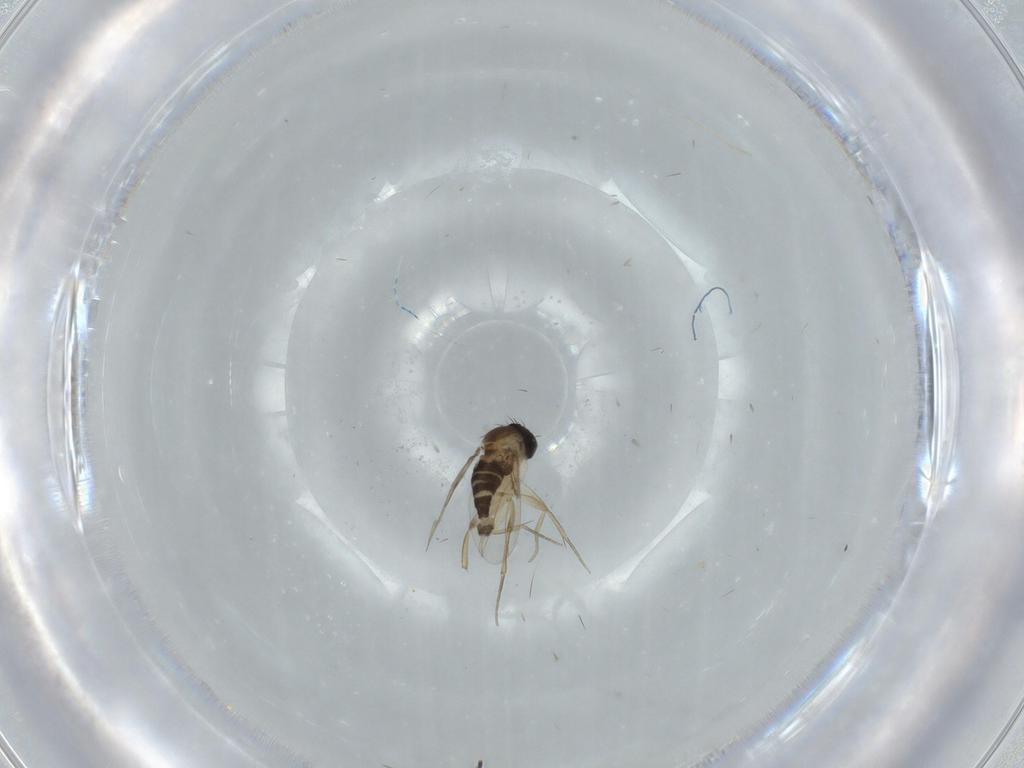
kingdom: Animalia
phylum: Arthropoda
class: Insecta
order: Diptera
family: Phoridae
